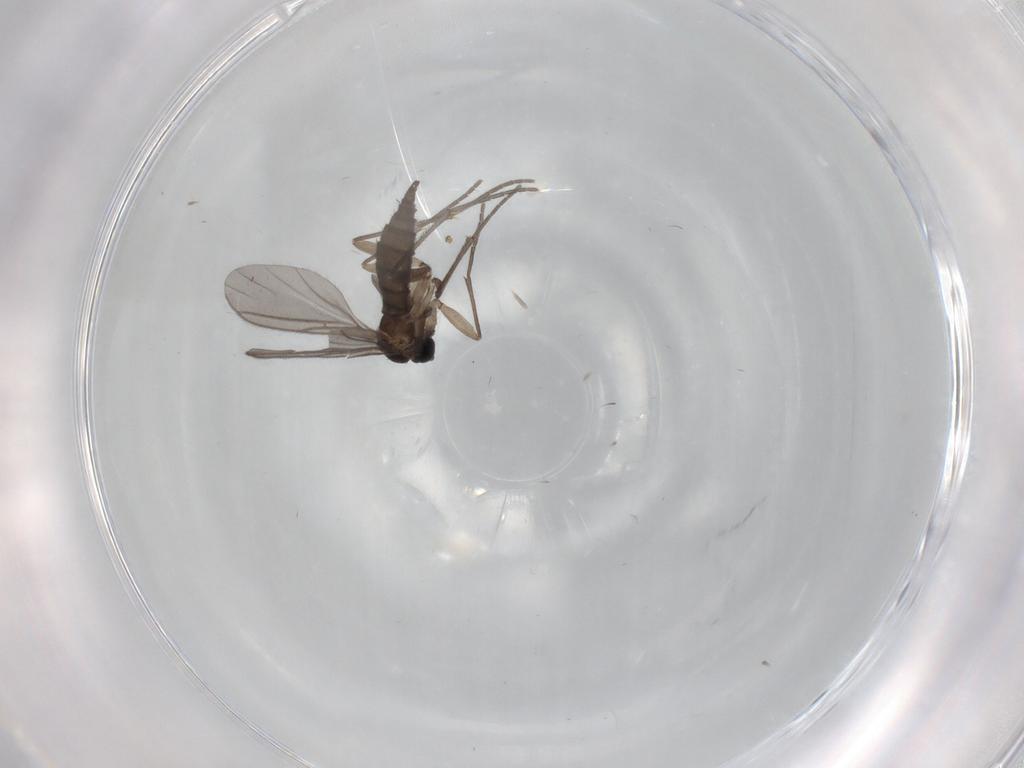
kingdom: Animalia
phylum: Arthropoda
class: Insecta
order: Diptera
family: Sciaridae
